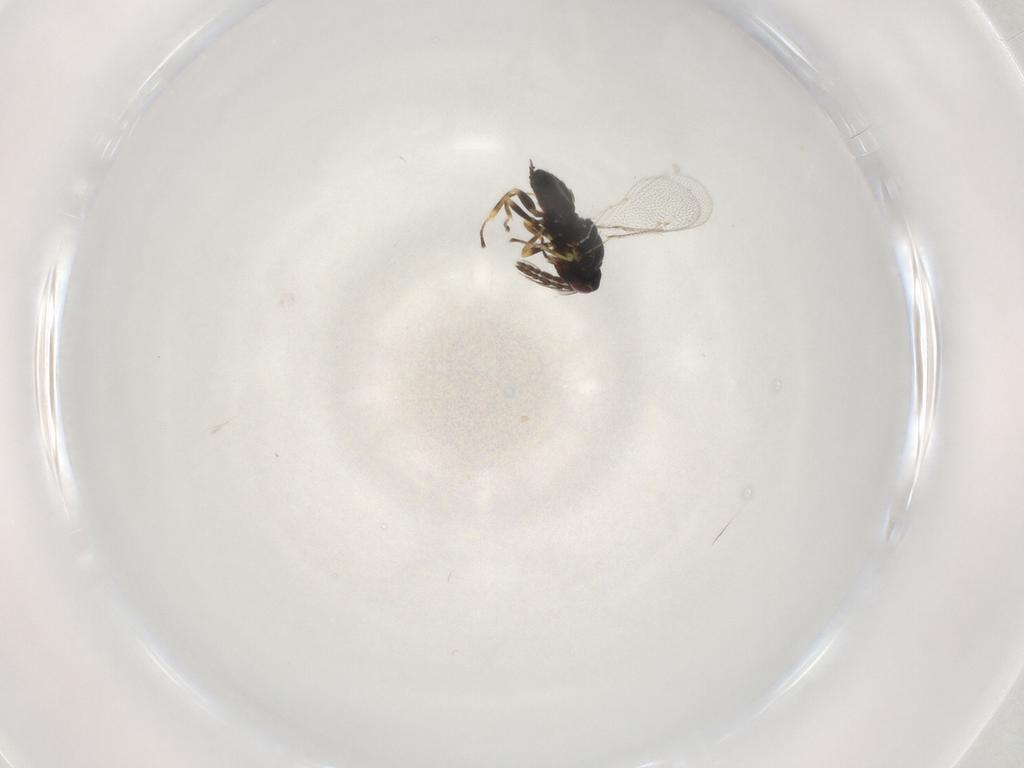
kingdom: Animalia
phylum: Arthropoda
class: Insecta
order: Hymenoptera
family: Eulophidae
